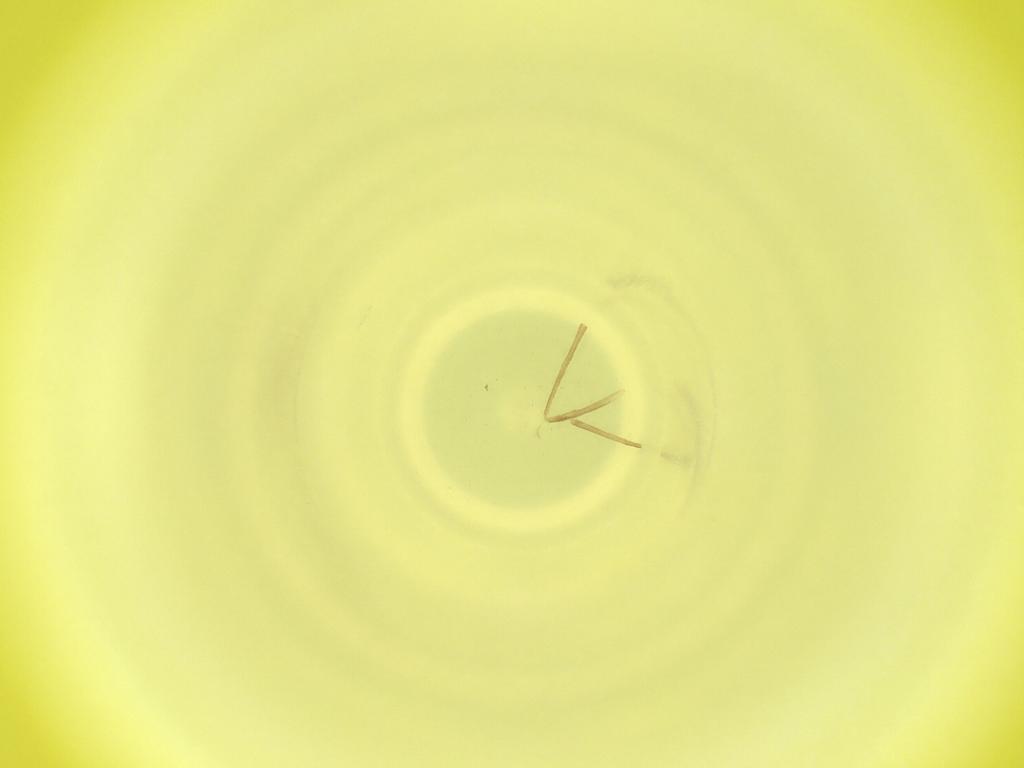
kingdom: Animalia
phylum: Arthropoda
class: Insecta
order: Diptera
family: Cecidomyiidae
